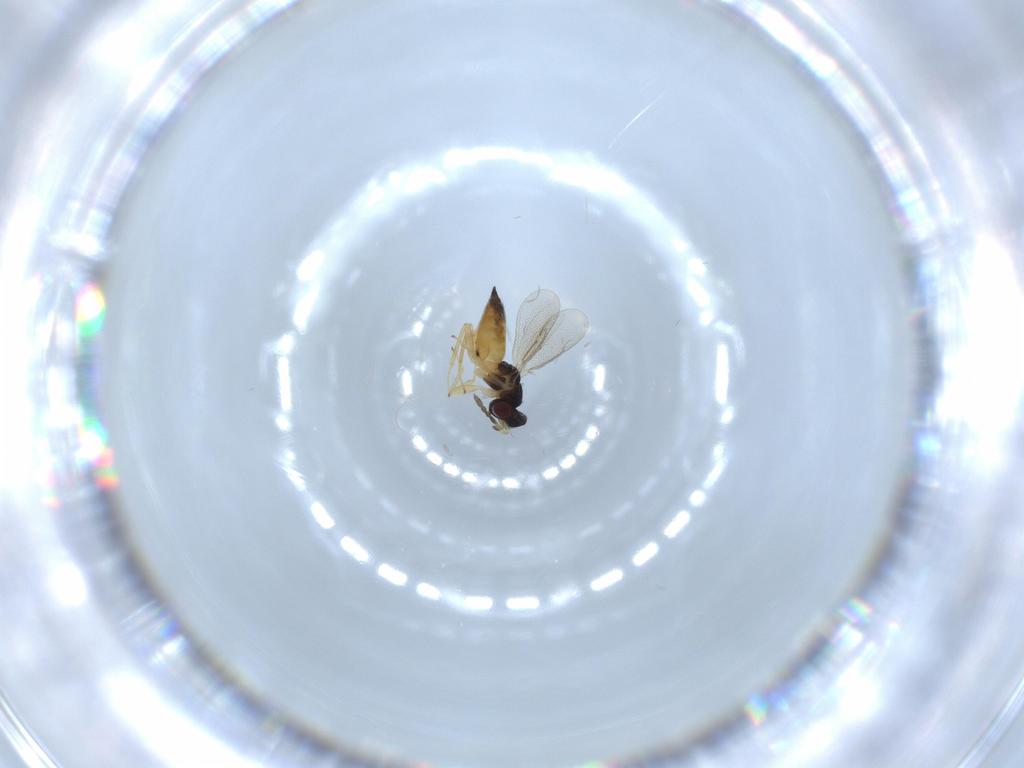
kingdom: Animalia
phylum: Arthropoda
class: Insecta
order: Hymenoptera
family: Eulophidae
